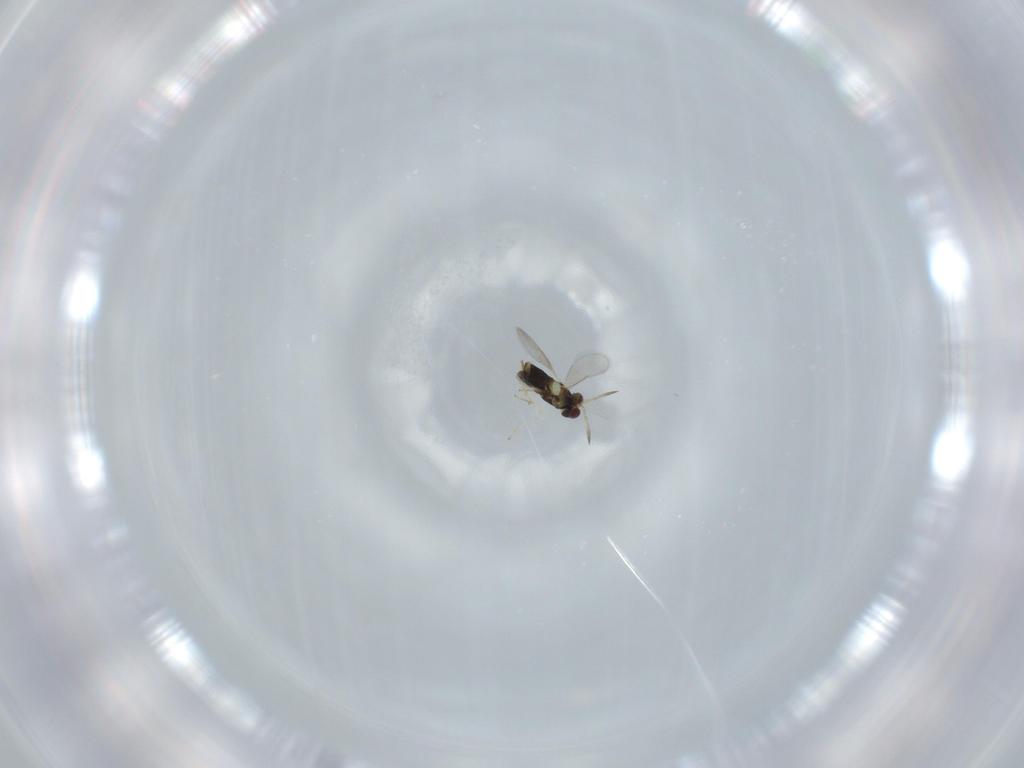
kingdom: Animalia
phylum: Arthropoda
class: Insecta
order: Hymenoptera
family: Aphelinidae
